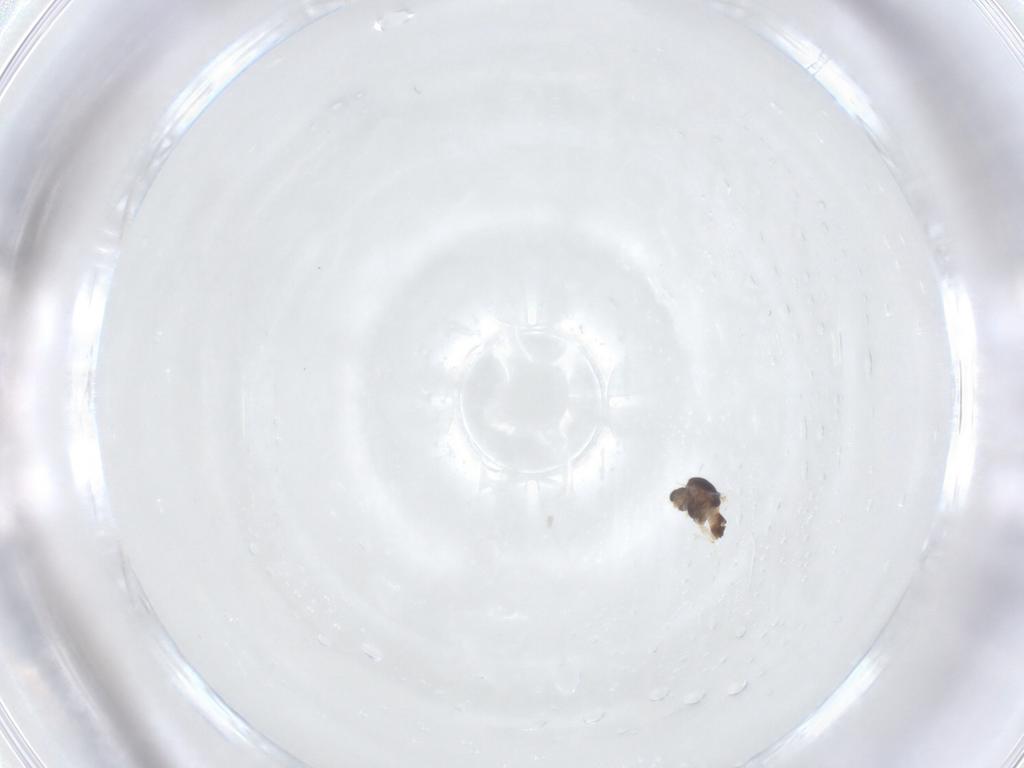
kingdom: Animalia
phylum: Arthropoda
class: Insecta
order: Diptera
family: Chironomidae
